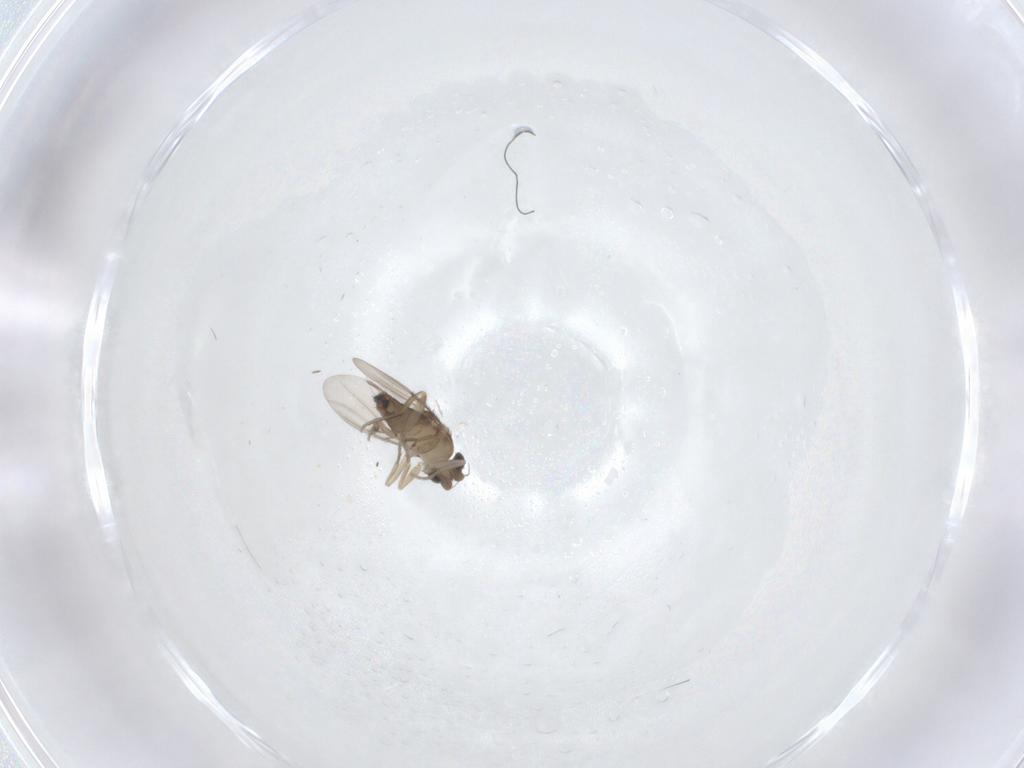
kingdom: Animalia
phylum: Arthropoda
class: Insecta
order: Diptera
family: Phoridae
